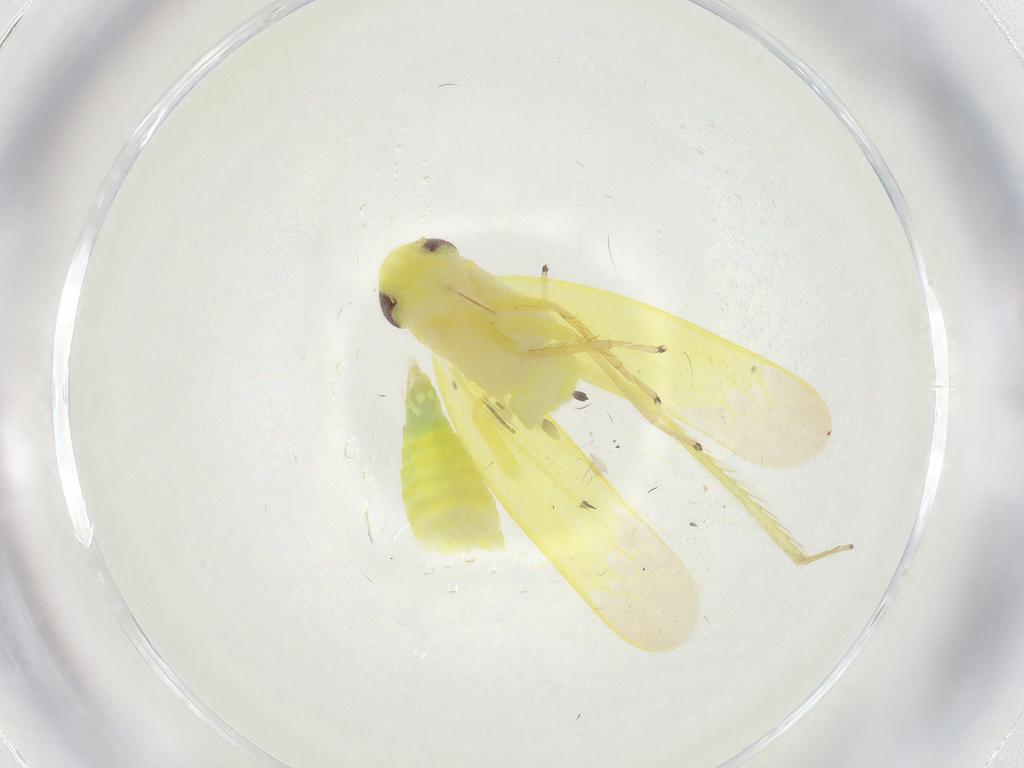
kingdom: Animalia
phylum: Arthropoda
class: Insecta
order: Hemiptera
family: Cicadellidae
